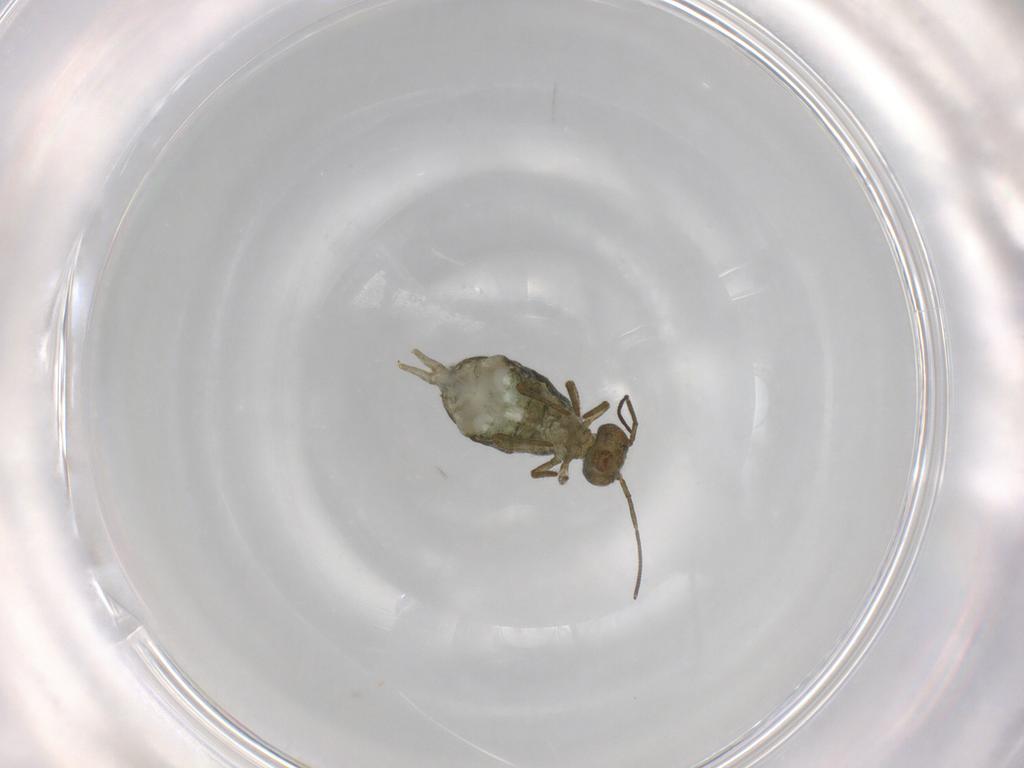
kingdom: Animalia
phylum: Arthropoda
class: Collembola
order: Symphypleona
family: Sminthuridae
